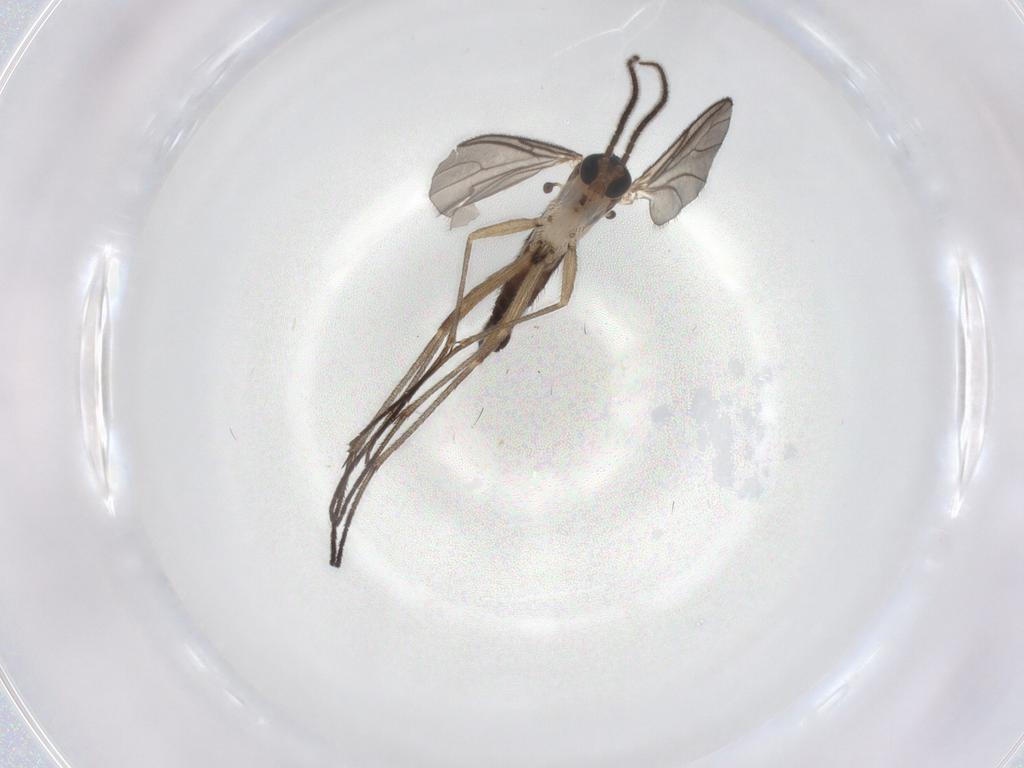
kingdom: Animalia
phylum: Arthropoda
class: Insecta
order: Diptera
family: Sciaridae
